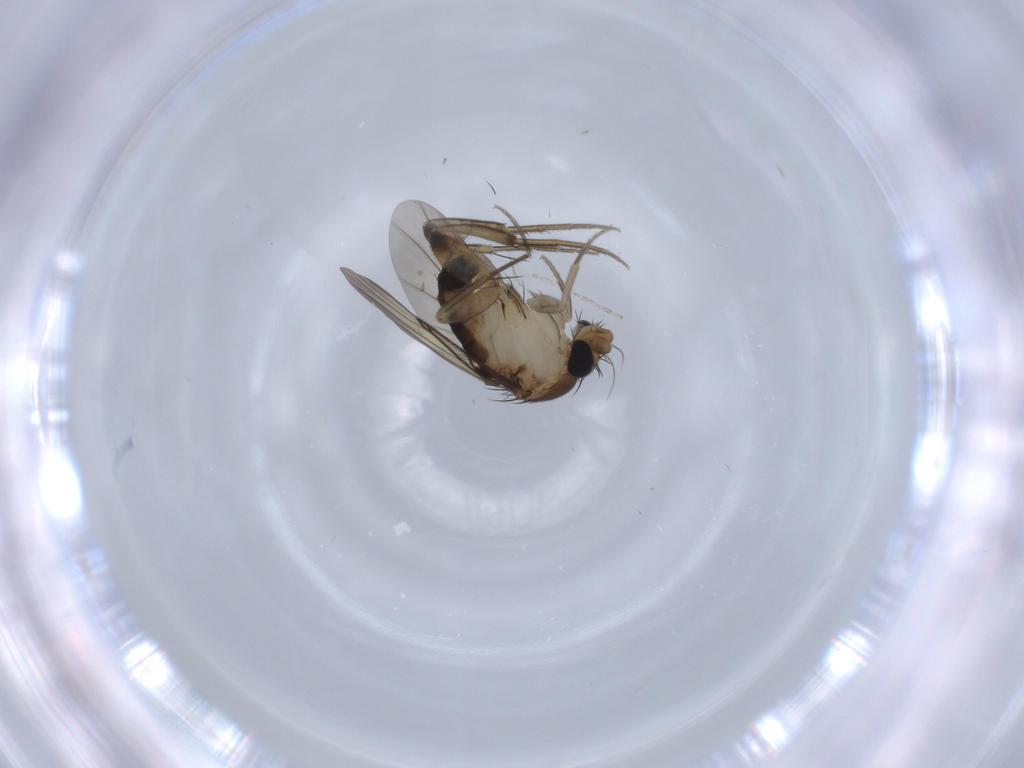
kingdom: Animalia
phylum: Arthropoda
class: Insecta
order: Diptera
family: Phoridae
